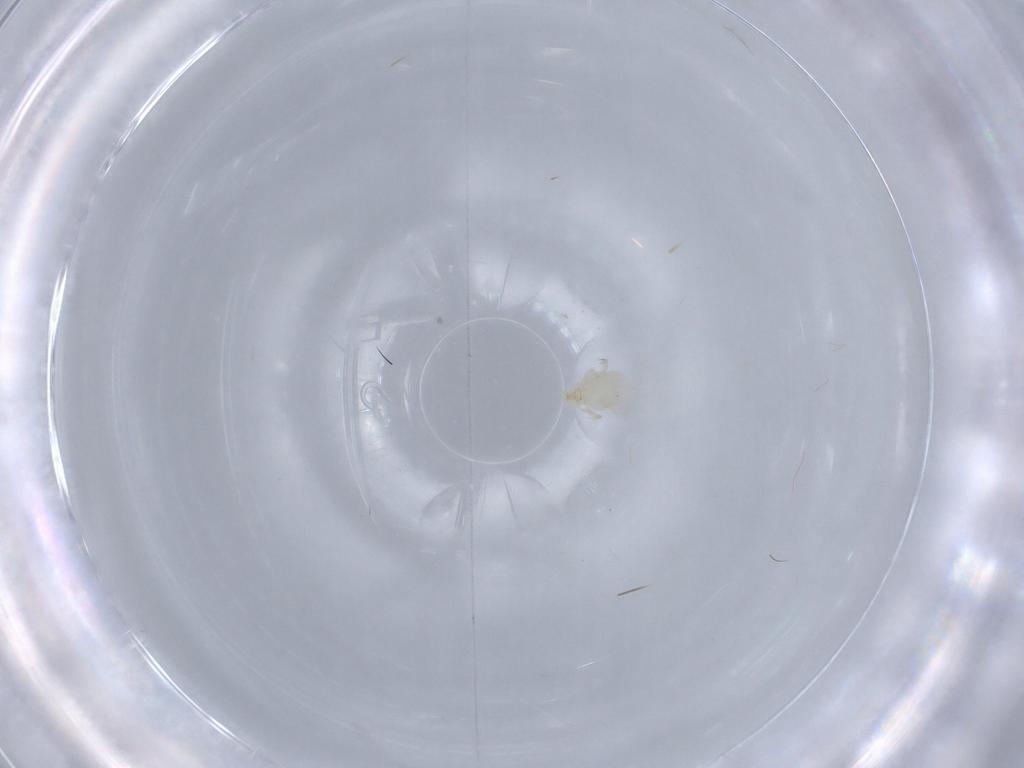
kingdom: Animalia
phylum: Arthropoda
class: Arachnida
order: Trombidiformes
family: Erythraeidae
